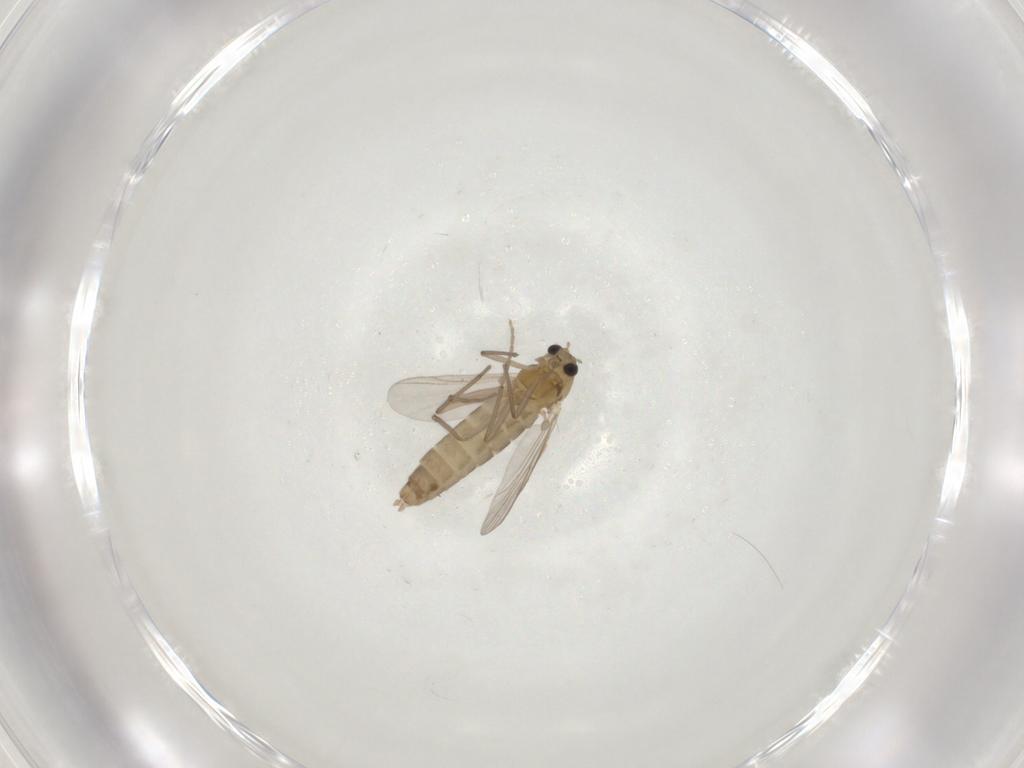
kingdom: Animalia
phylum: Arthropoda
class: Insecta
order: Diptera
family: Chironomidae
